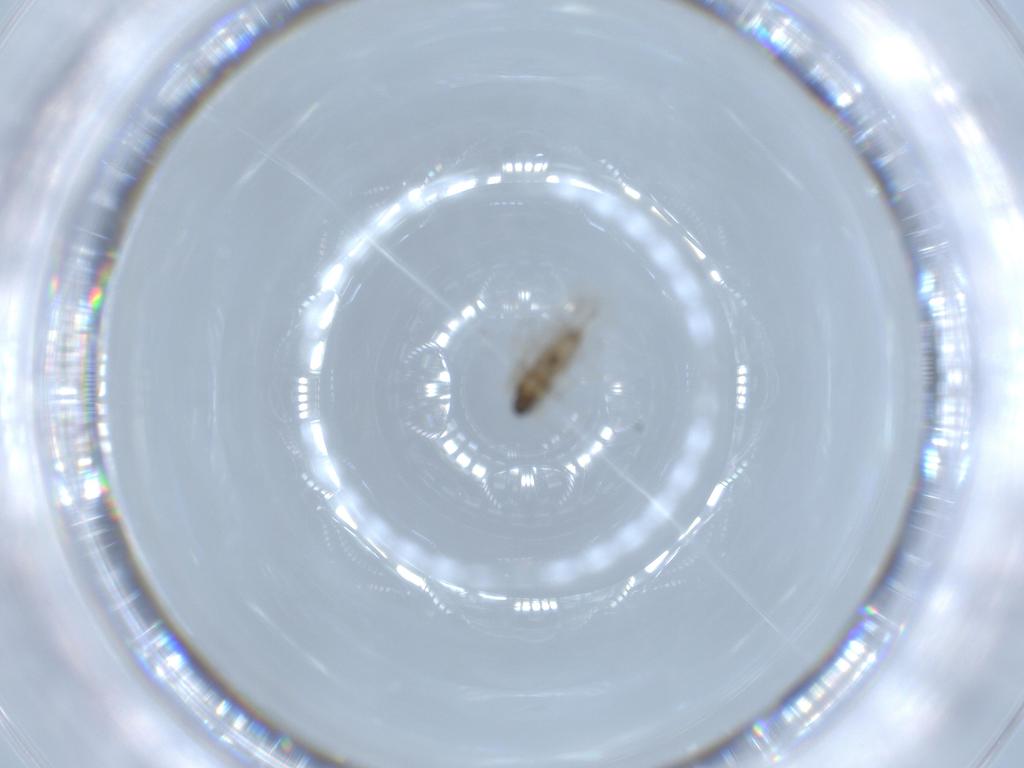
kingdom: Animalia
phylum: Arthropoda
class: Insecta
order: Diptera
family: Cecidomyiidae
